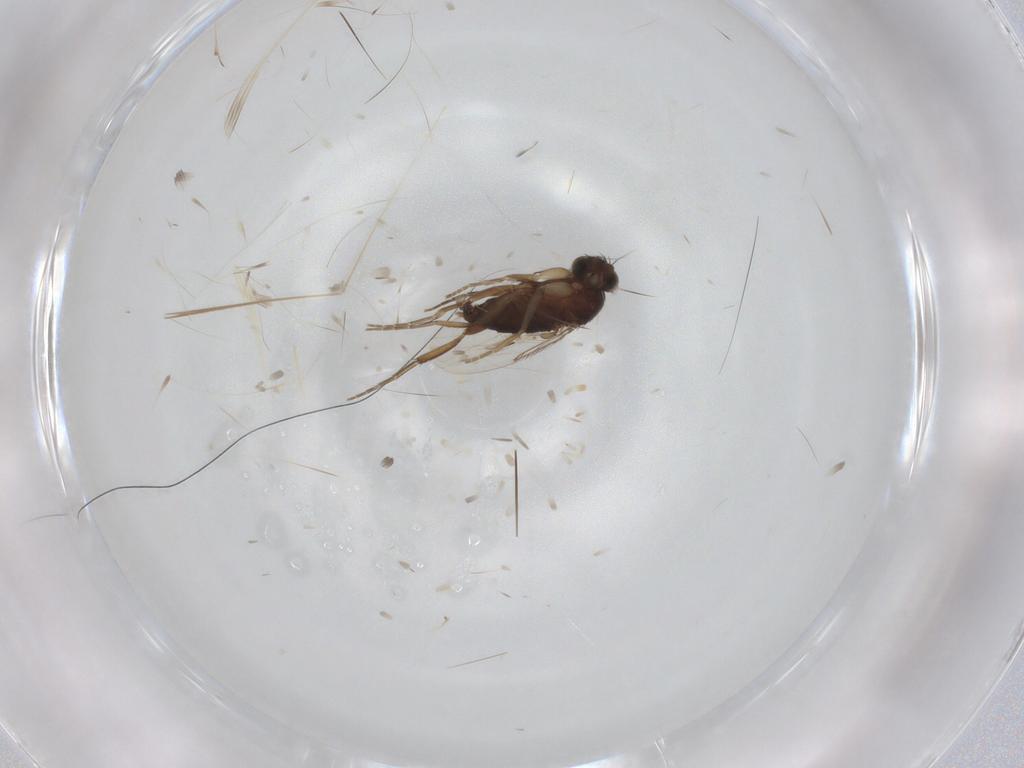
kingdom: Animalia
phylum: Arthropoda
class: Insecta
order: Diptera
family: Phoridae
